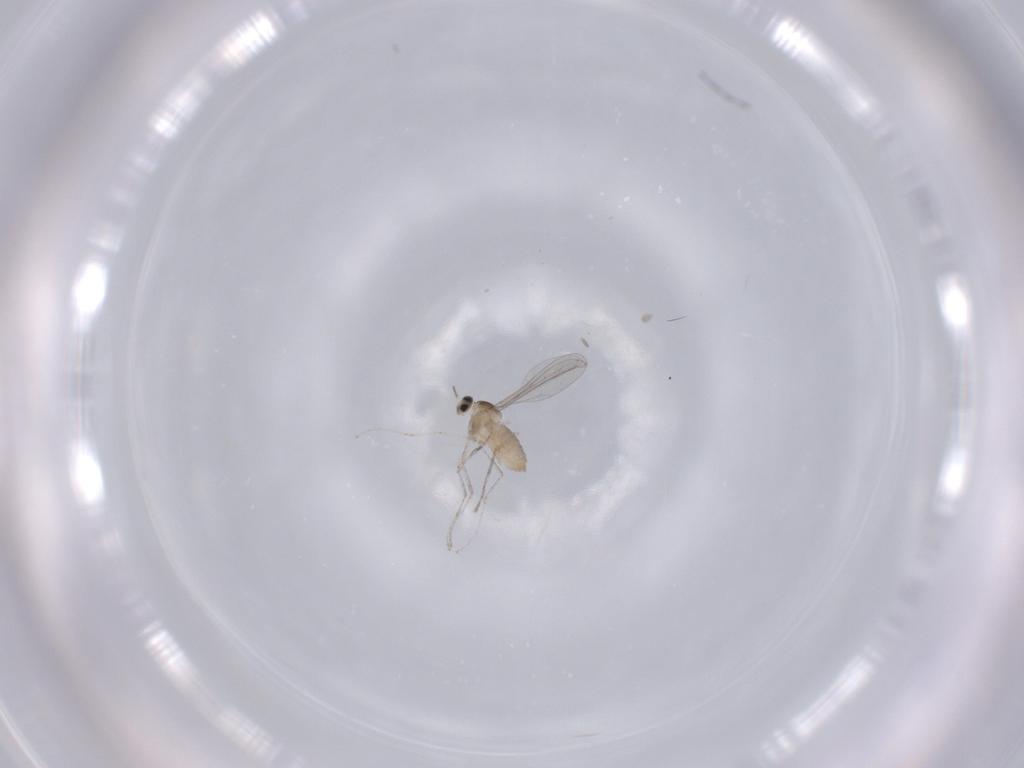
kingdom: Animalia
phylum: Arthropoda
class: Insecta
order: Diptera
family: Cecidomyiidae
